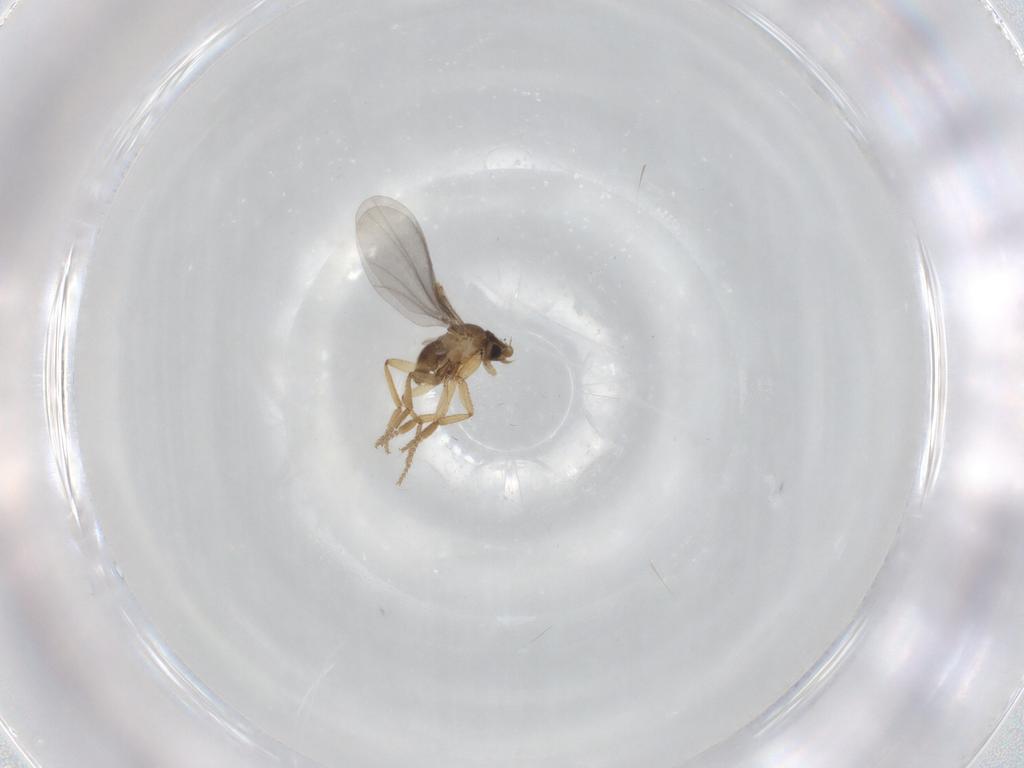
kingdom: Animalia
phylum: Arthropoda
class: Insecta
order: Diptera
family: Phoridae
